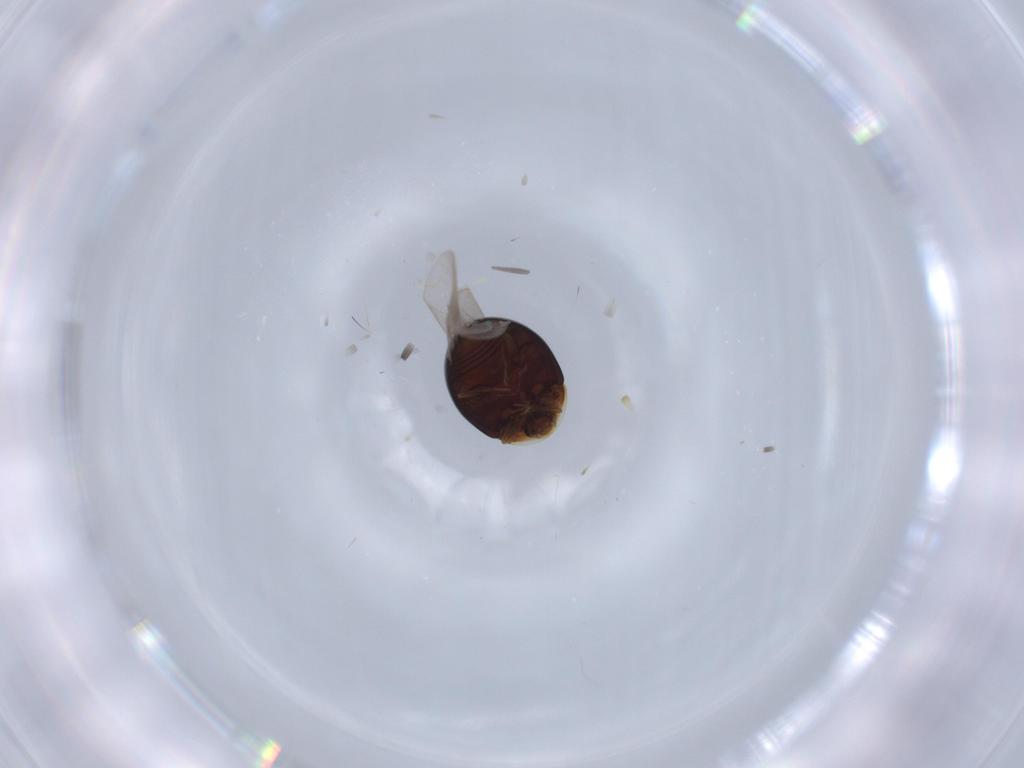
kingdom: Animalia
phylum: Arthropoda
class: Insecta
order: Coleoptera
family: Corylophidae
